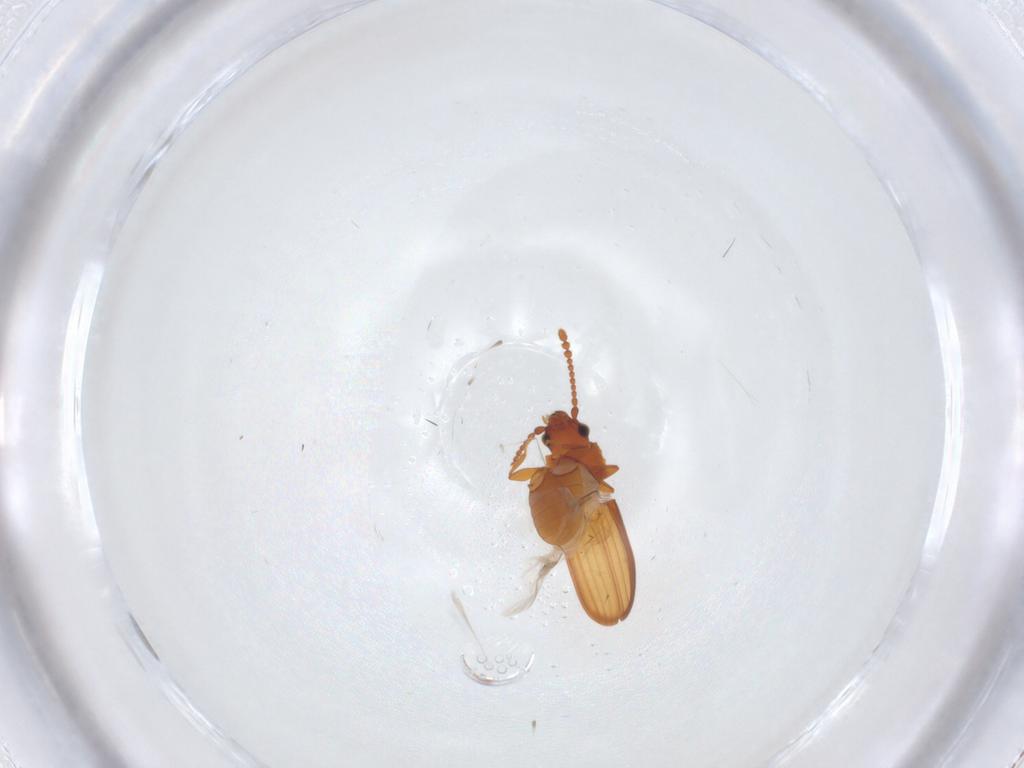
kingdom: Animalia
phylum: Arthropoda
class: Insecta
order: Coleoptera
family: Laemophloeidae
